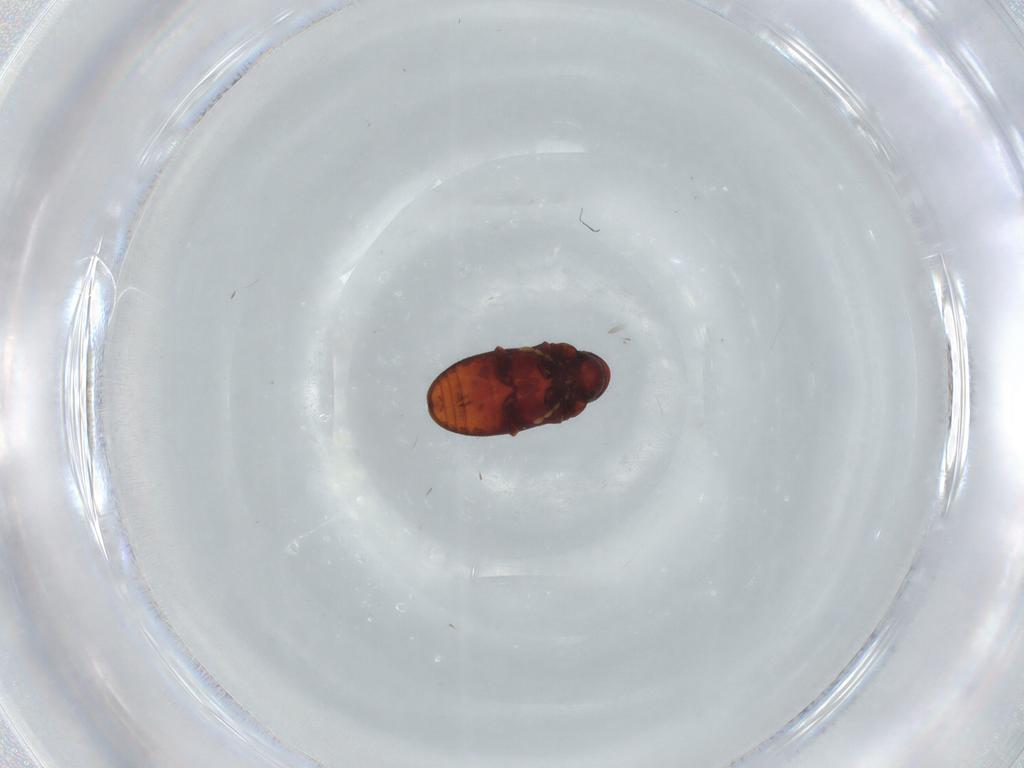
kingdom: Animalia
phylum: Arthropoda
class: Insecta
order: Coleoptera
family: Ptinidae
